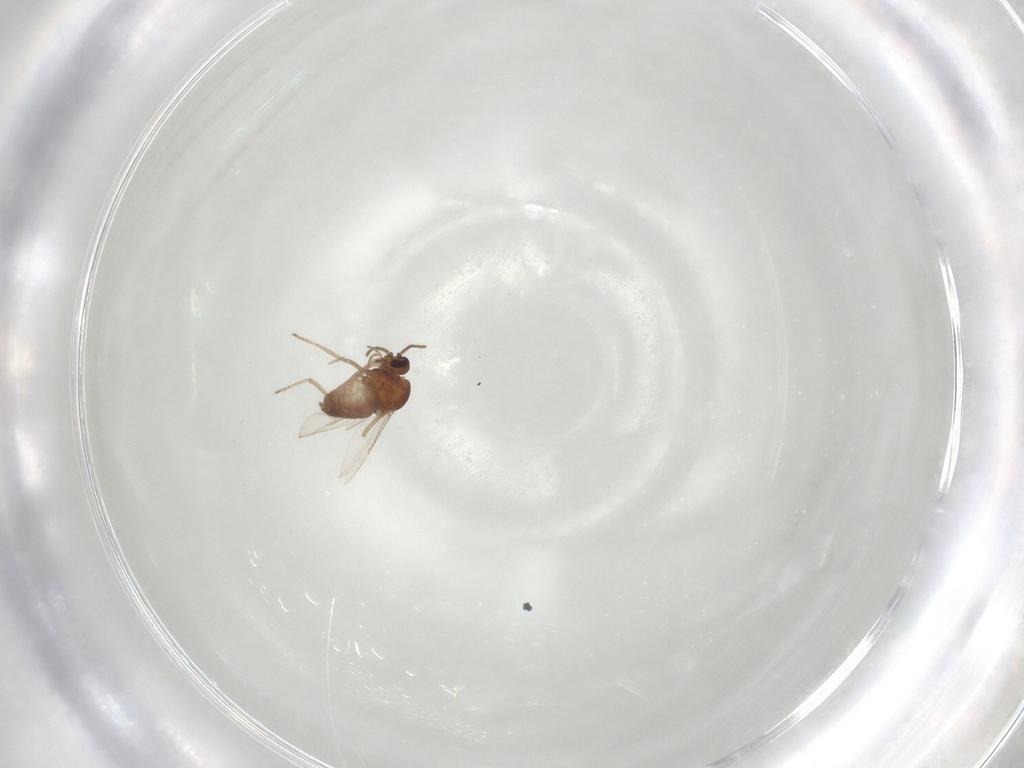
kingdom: Animalia
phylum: Arthropoda
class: Insecta
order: Diptera
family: Ceratopogonidae
